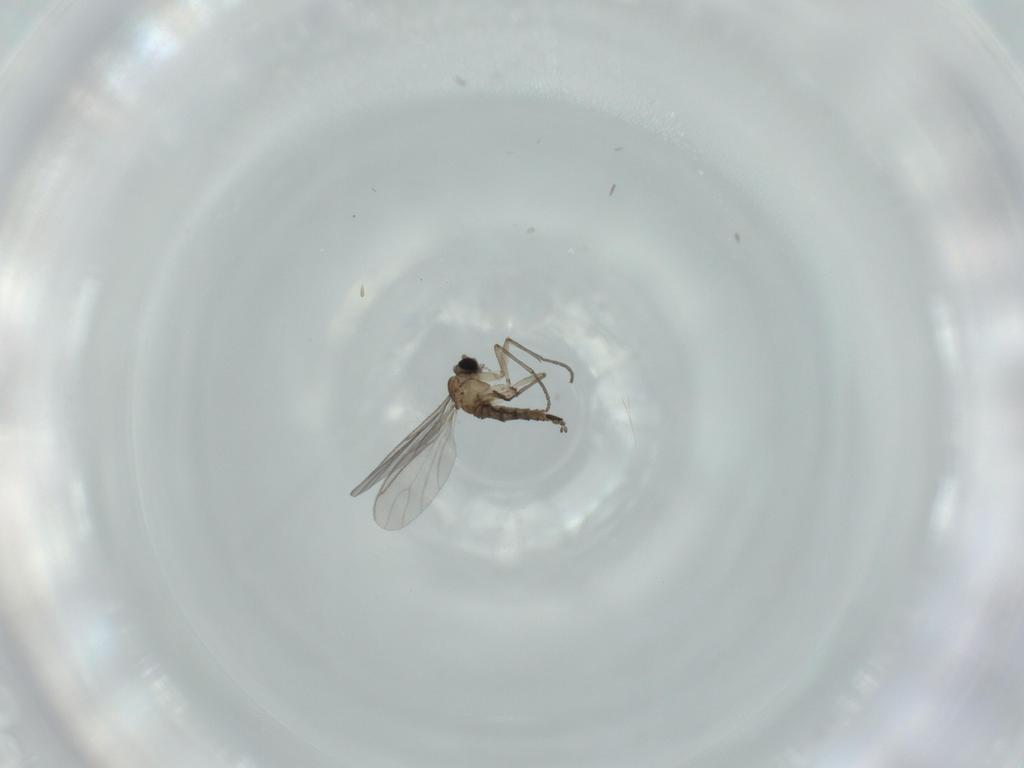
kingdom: Animalia
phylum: Arthropoda
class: Insecta
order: Diptera
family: Sciaridae
